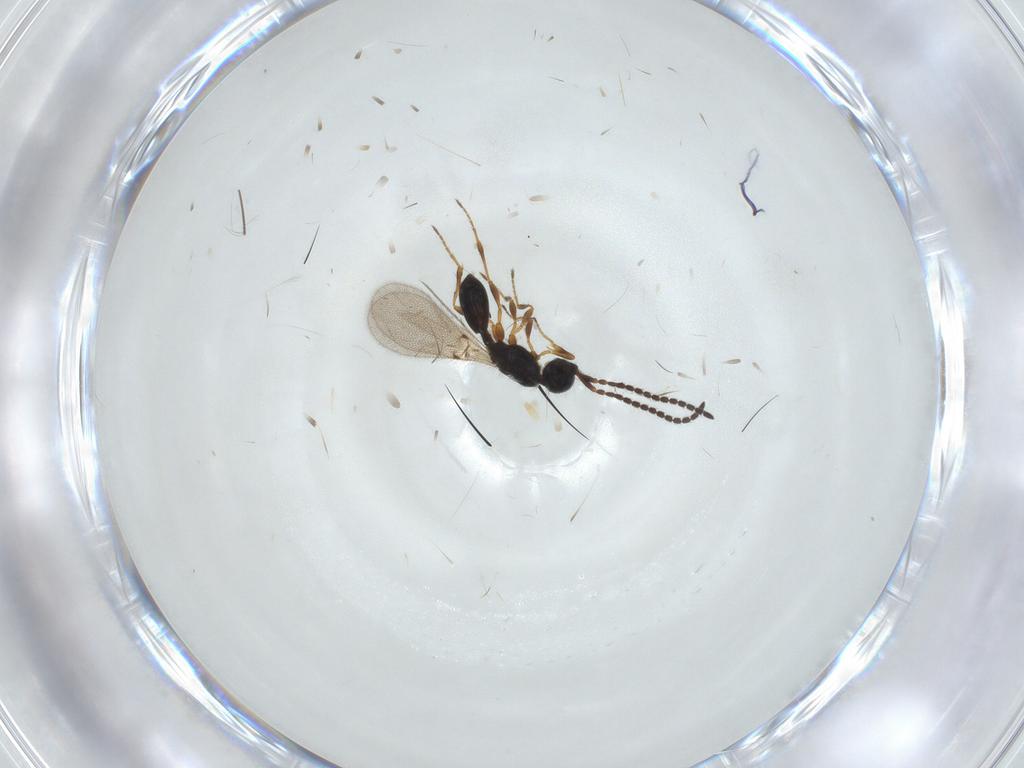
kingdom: Animalia
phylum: Arthropoda
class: Insecta
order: Hymenoptera
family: Diapriidae
